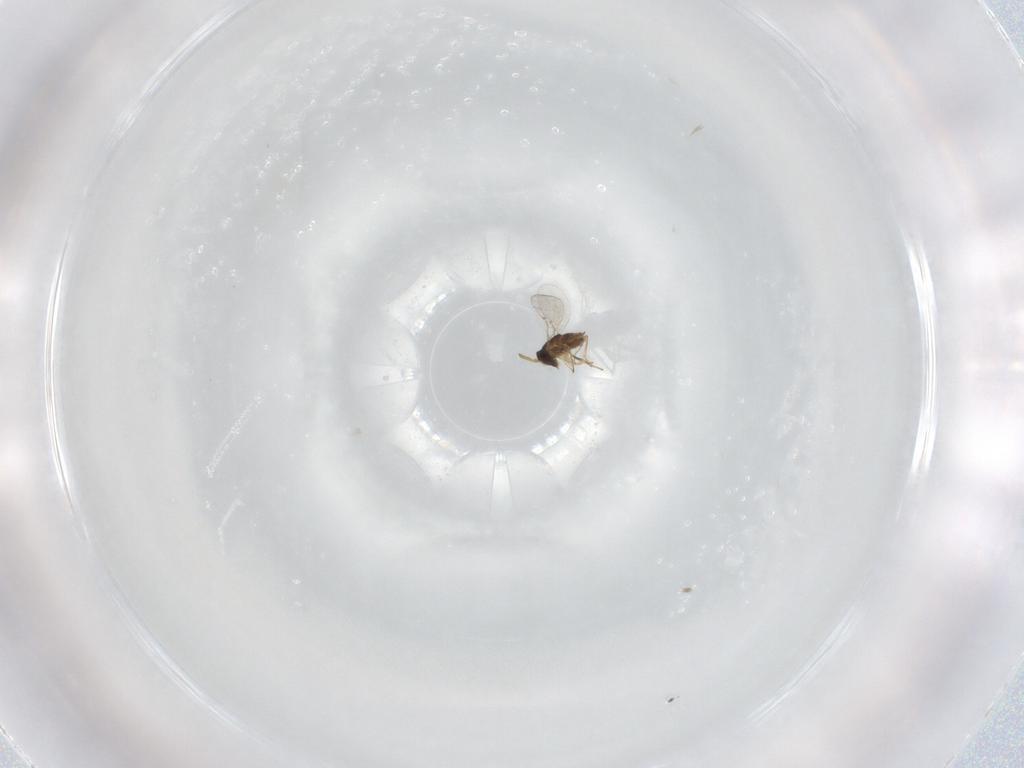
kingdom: Animalia
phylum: Arthropoda
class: Insecta
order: Hymenoptera
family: Encyrtidae
